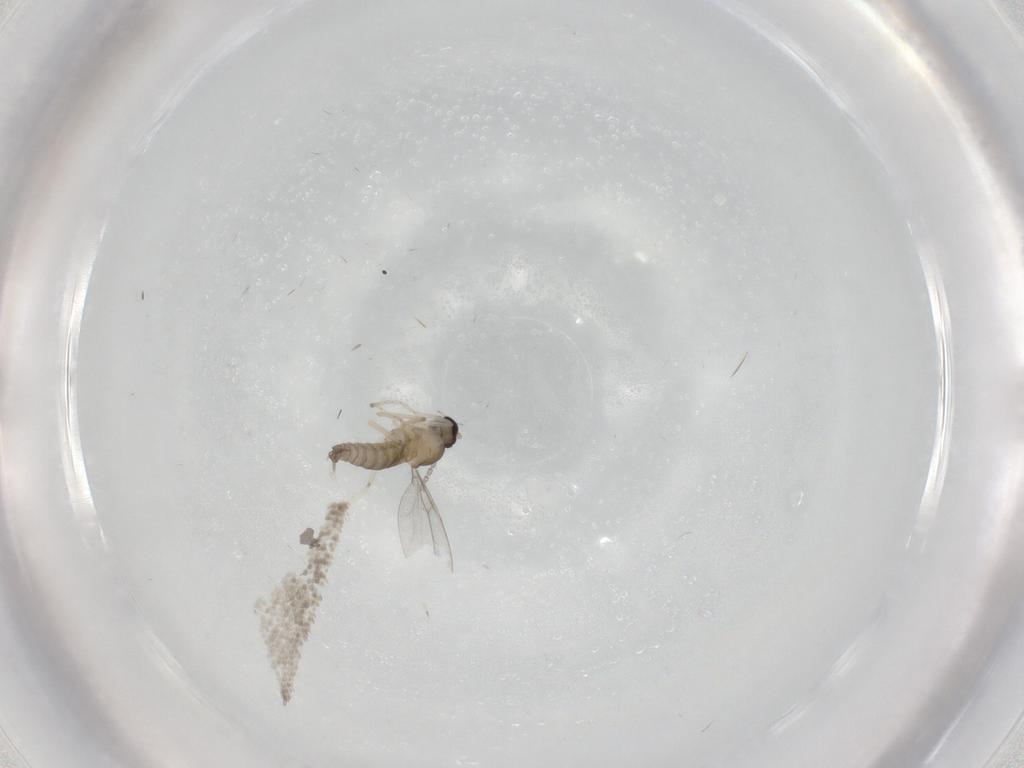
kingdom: Animalia
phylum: Arthropoda
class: Insecta
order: Diptera
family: Cecidomyiidae
